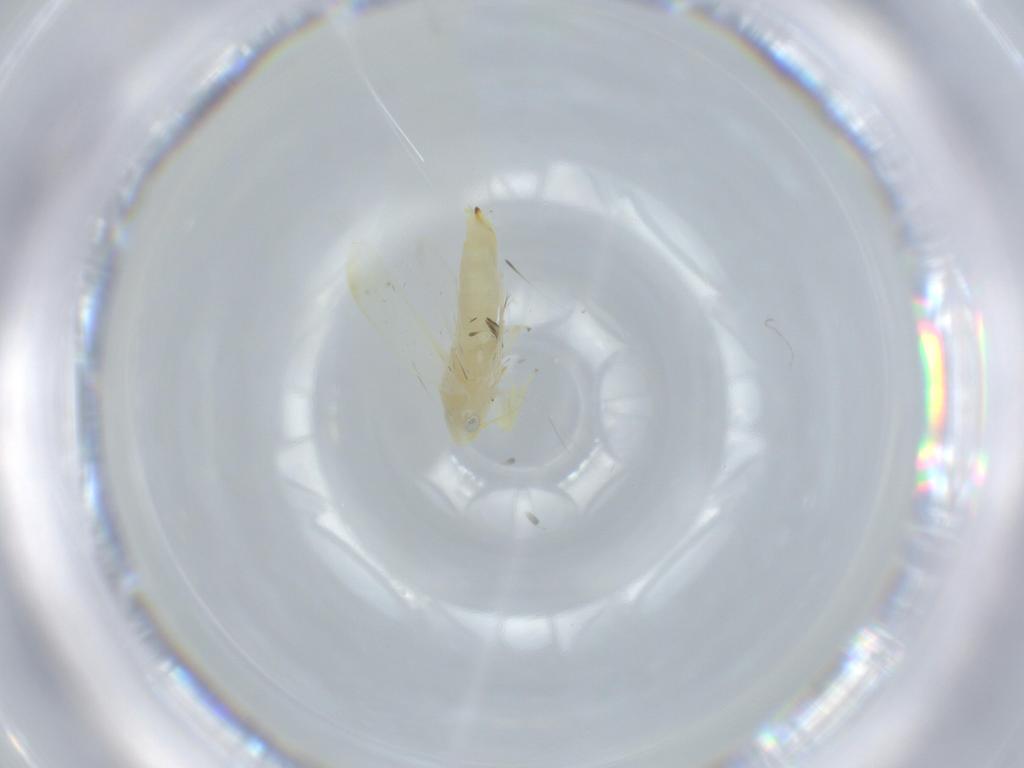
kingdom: Animalia
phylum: Arthropoda
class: Insecta
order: Hemiptera
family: Cicadellidae
